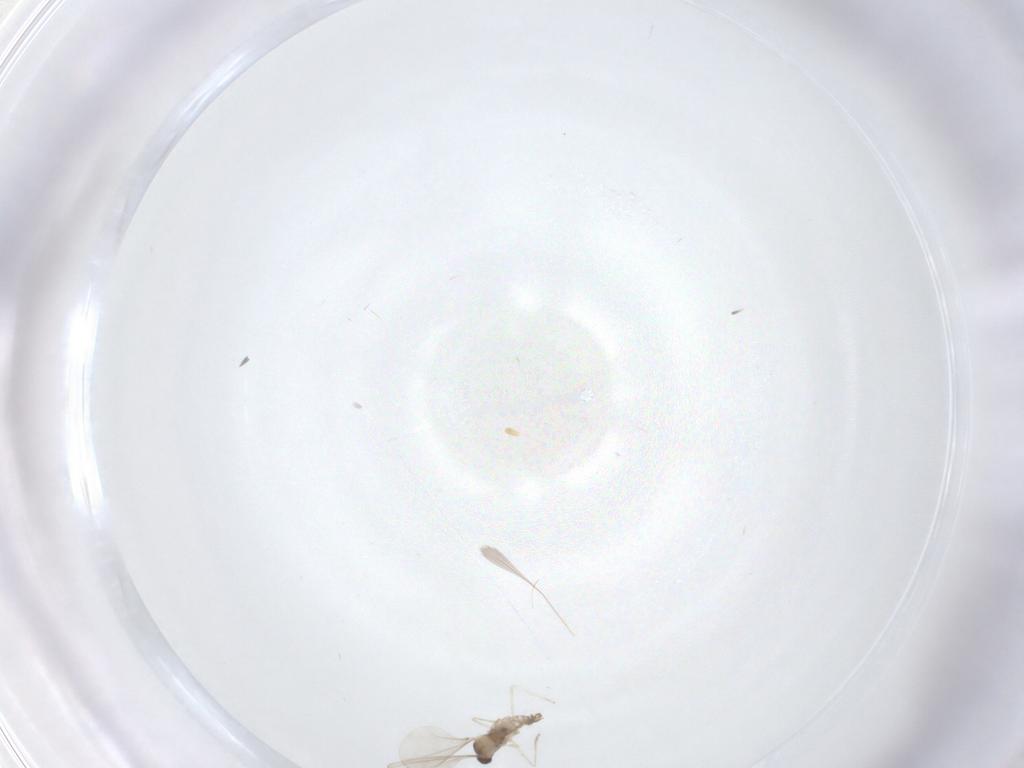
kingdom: Animalia
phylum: Arthropoda
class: Insecta
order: Diptera
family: Cecidomyiidae
